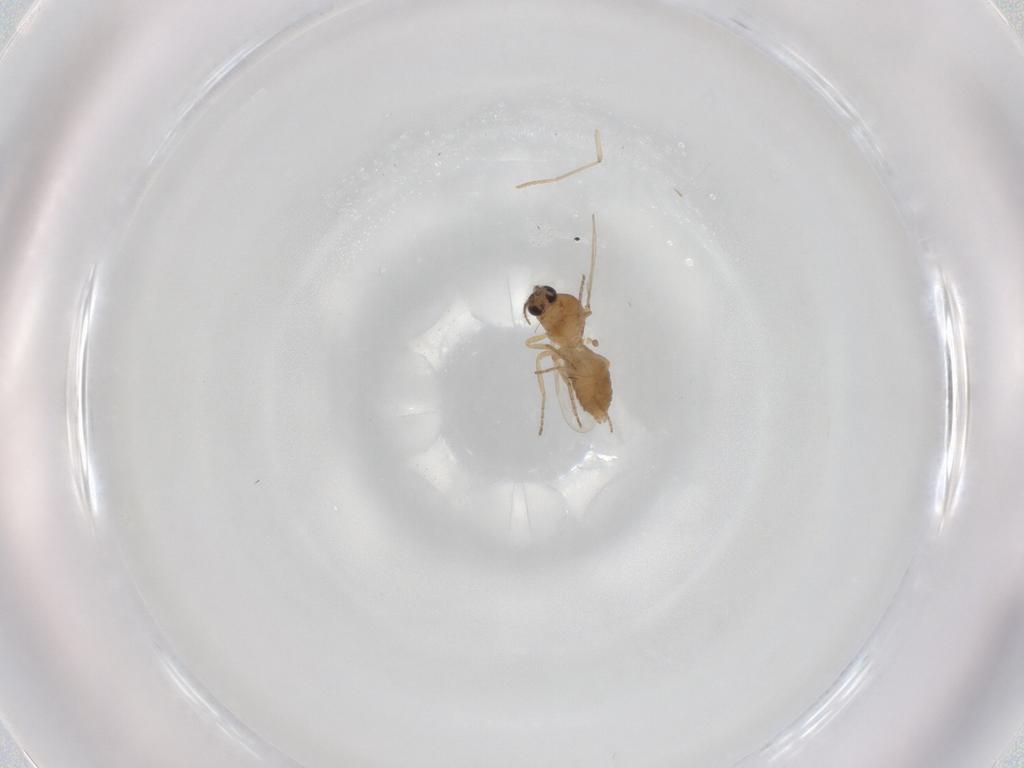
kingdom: Animalia
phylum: Arthropoda
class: Insecta
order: Diptera
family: Ceratopogonidae
